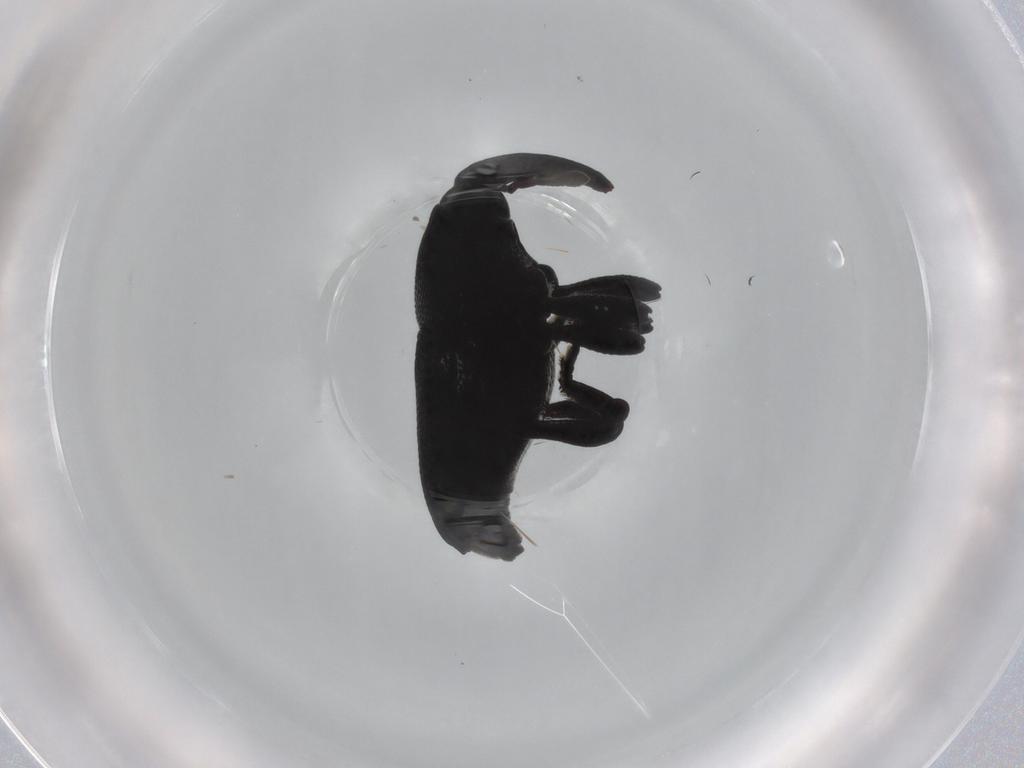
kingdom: Animalia
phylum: Arthropoda
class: Insecta
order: Coleoptera
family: Curculionidae
